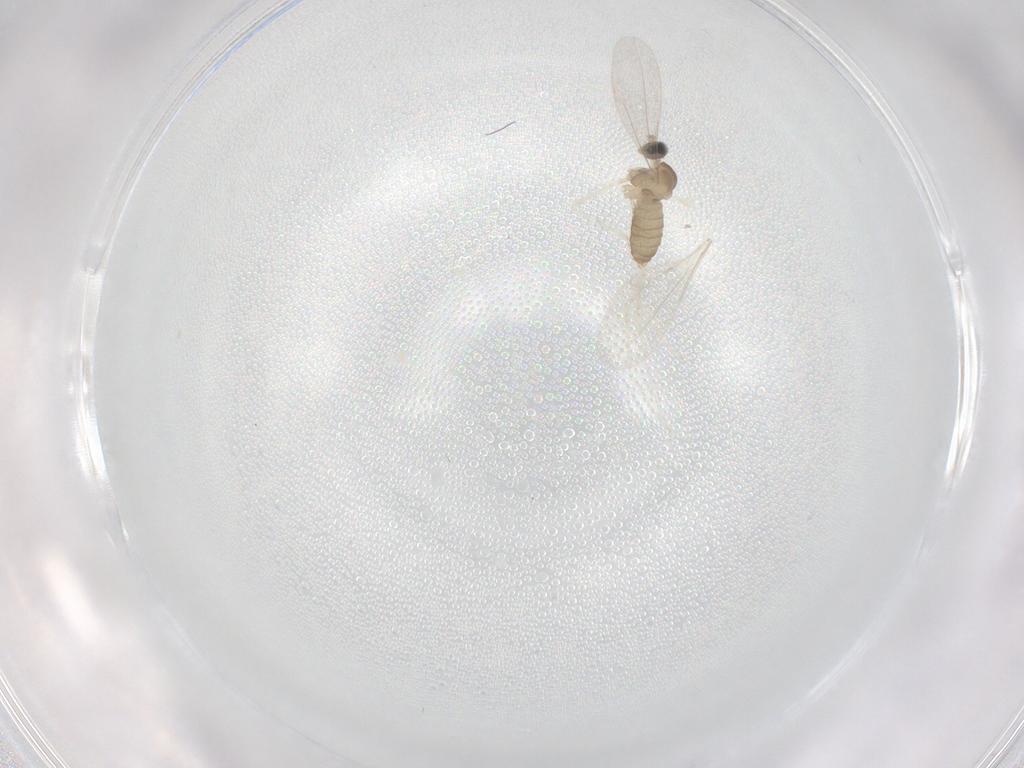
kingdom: Animalia
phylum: Arthropoda
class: Insecta
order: Diptera
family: Cecidomyiidae
